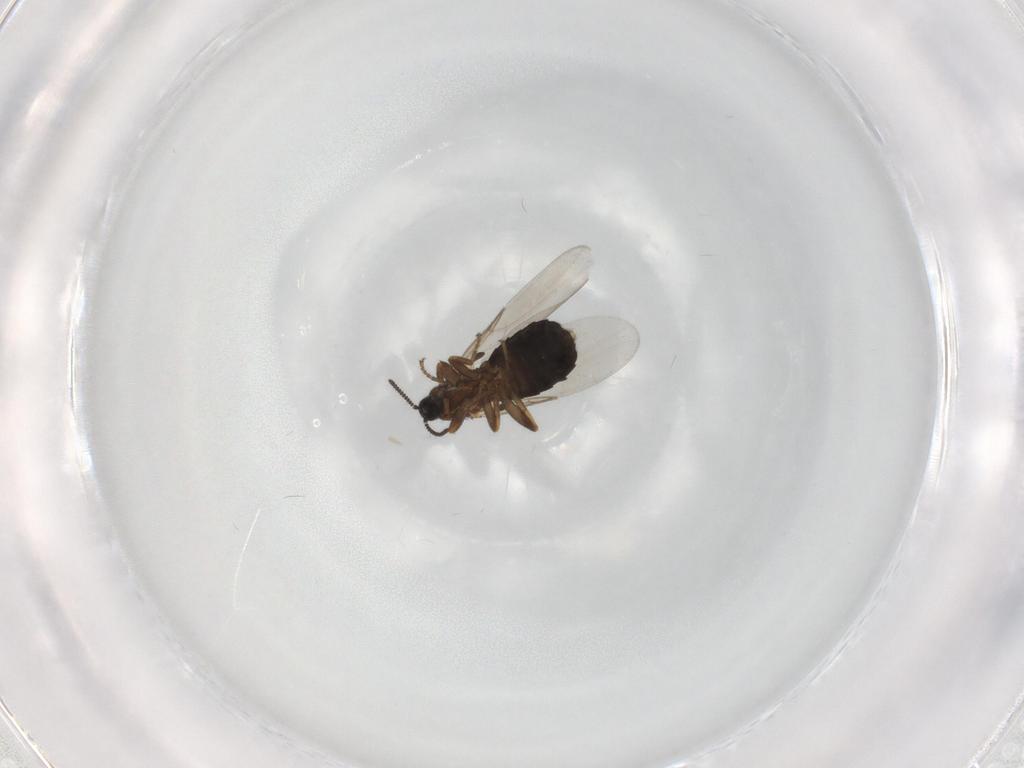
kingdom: Animalia
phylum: Arthropoda
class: Insecta
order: Diptera
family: Scatopsidae
